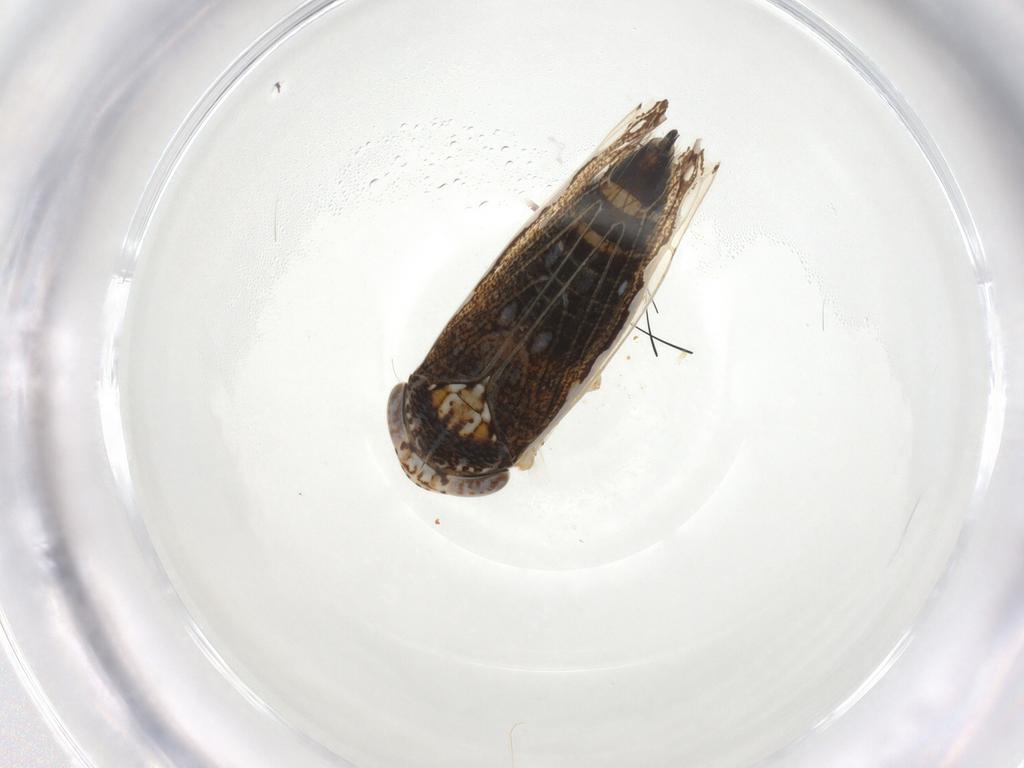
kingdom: Animalia
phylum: Arthropoda
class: Insecta
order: Hemiptera
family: Cicadellidae
